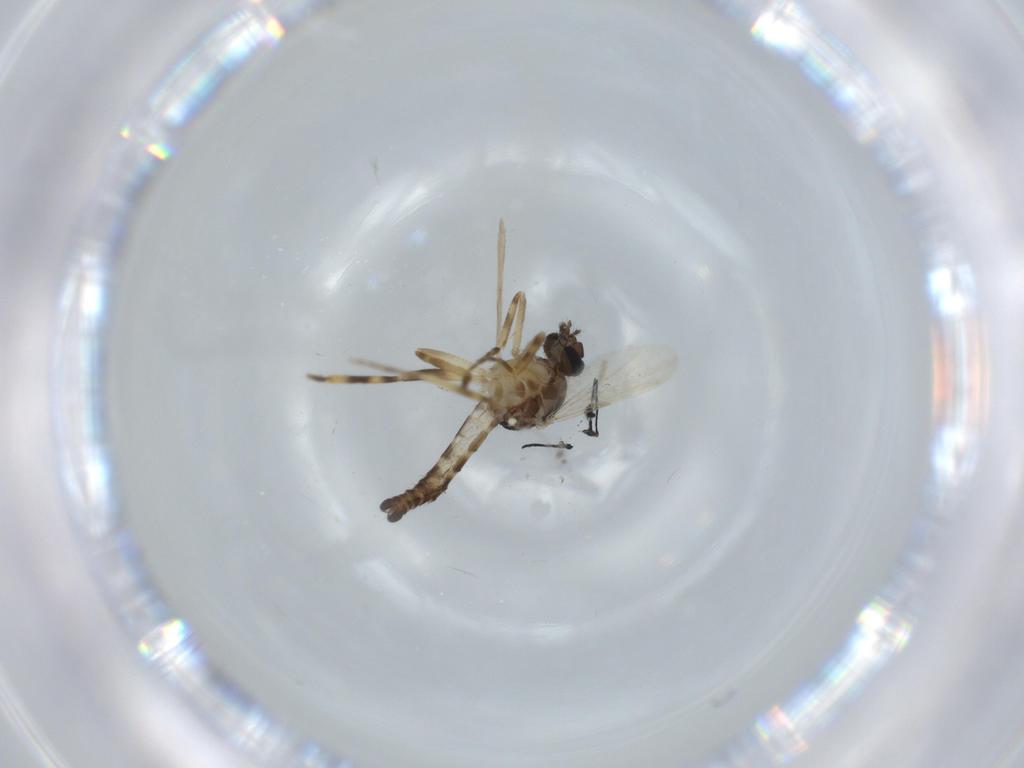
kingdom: Animalia
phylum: Arthropoda
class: Insecta
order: Diptera
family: Ceratopogonidae
